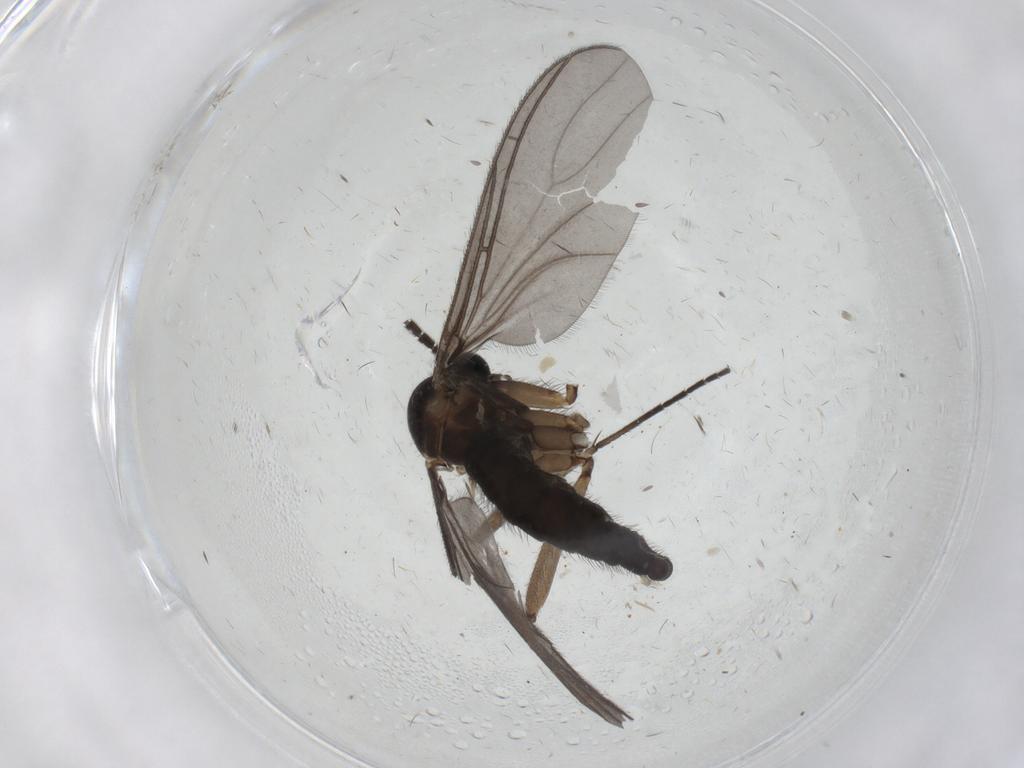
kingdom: Animalia
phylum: Arthropoda
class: Insecta
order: Diptera
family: Sciaridae
